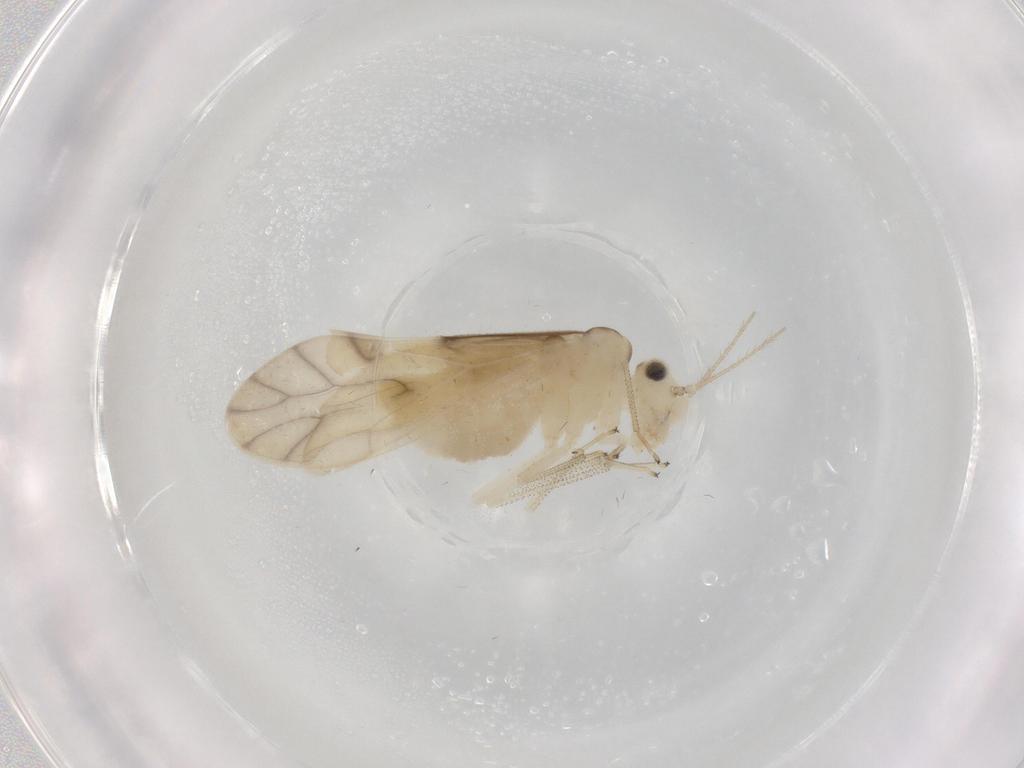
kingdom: Animalia
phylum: Arthropoda
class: Insecta
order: Psocodea
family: Caeciliusidae
